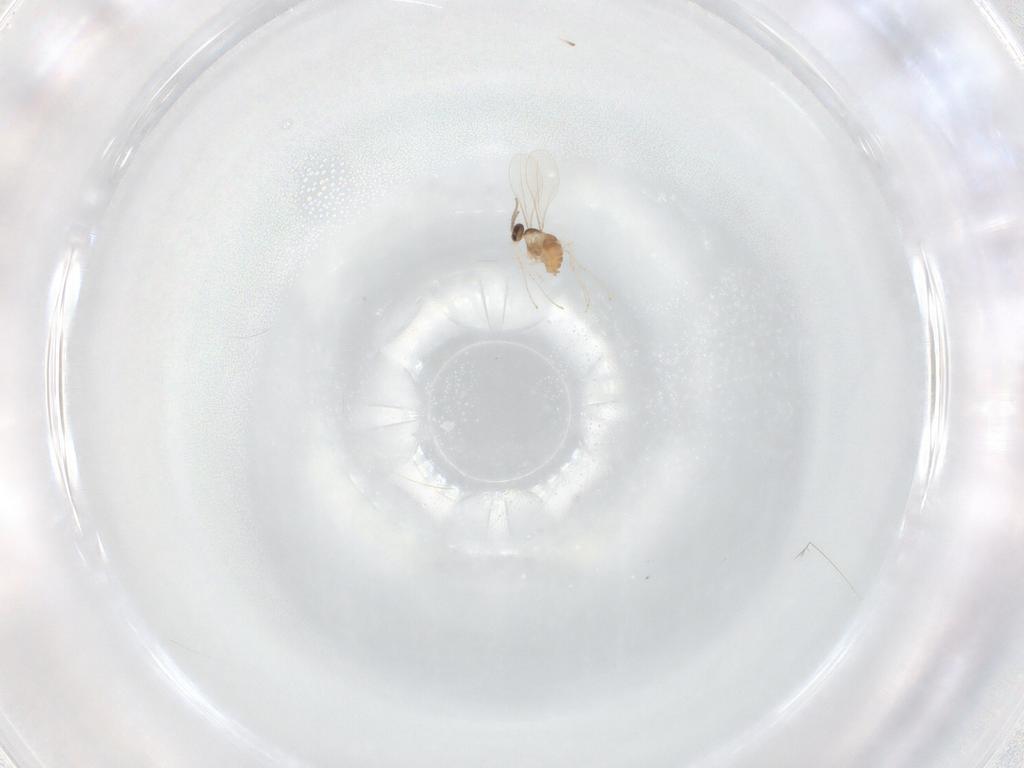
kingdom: Animalia
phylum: Arthropoda
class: Insecta
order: Diptera
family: Cecidomyiidae
